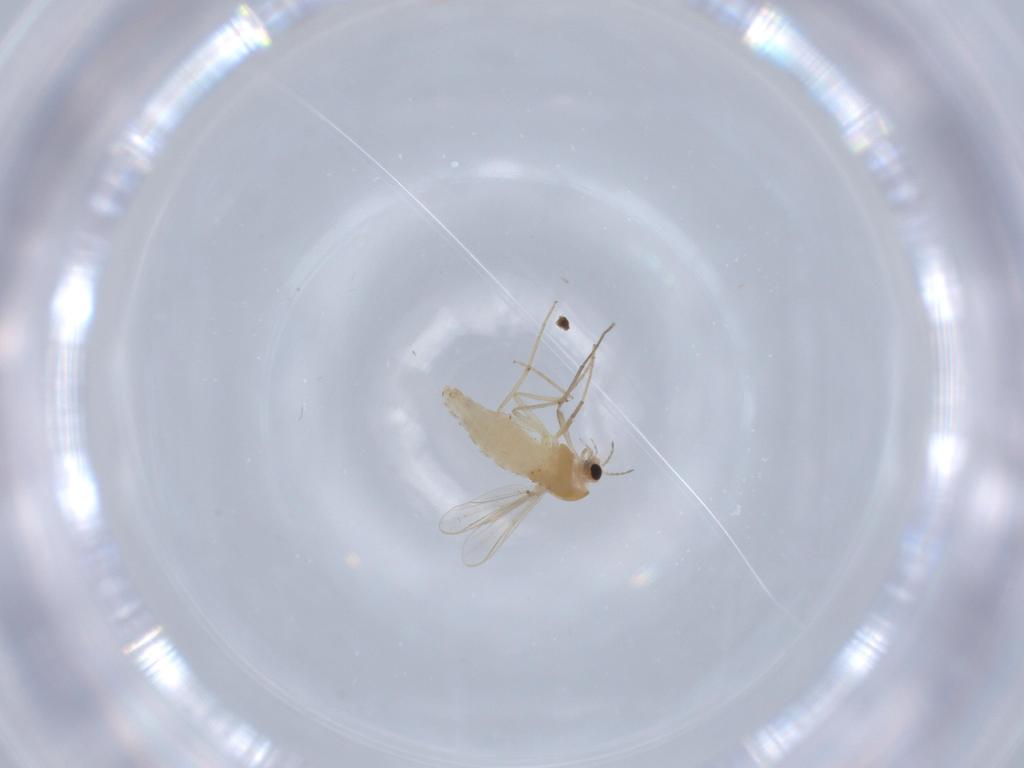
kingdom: Animalia
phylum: Arthropoda
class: Insecta
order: Diptera
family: Chironomidae
